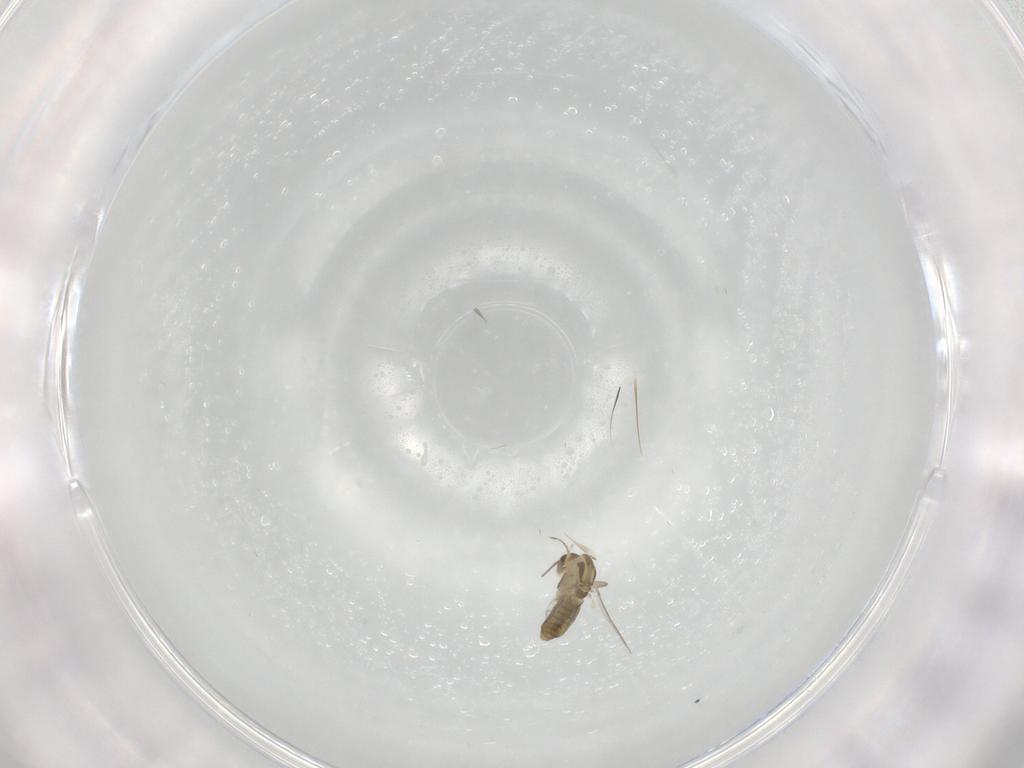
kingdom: Animalia
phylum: Arthropoda
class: Insecta
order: Diptera
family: Chironomidae
